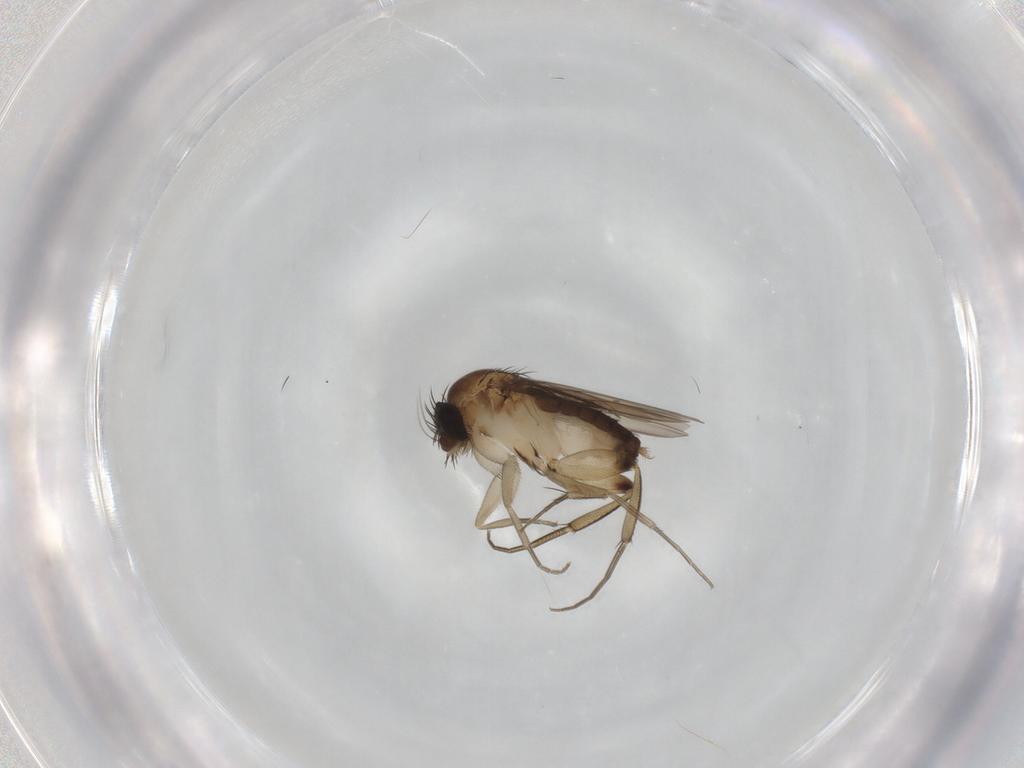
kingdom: Animalia
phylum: Arthropoda
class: Insecta
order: Diptera
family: Phoridae
